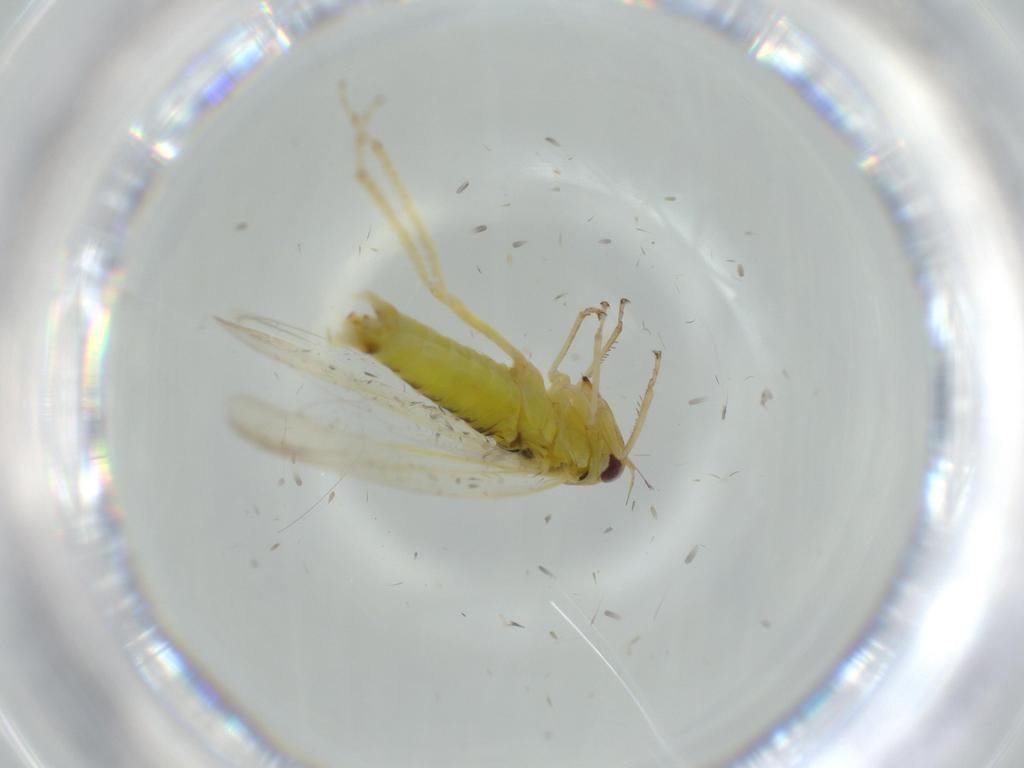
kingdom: Animalia
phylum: Arthropoda
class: Insecta
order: Hemiptera
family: Cicadellidae
